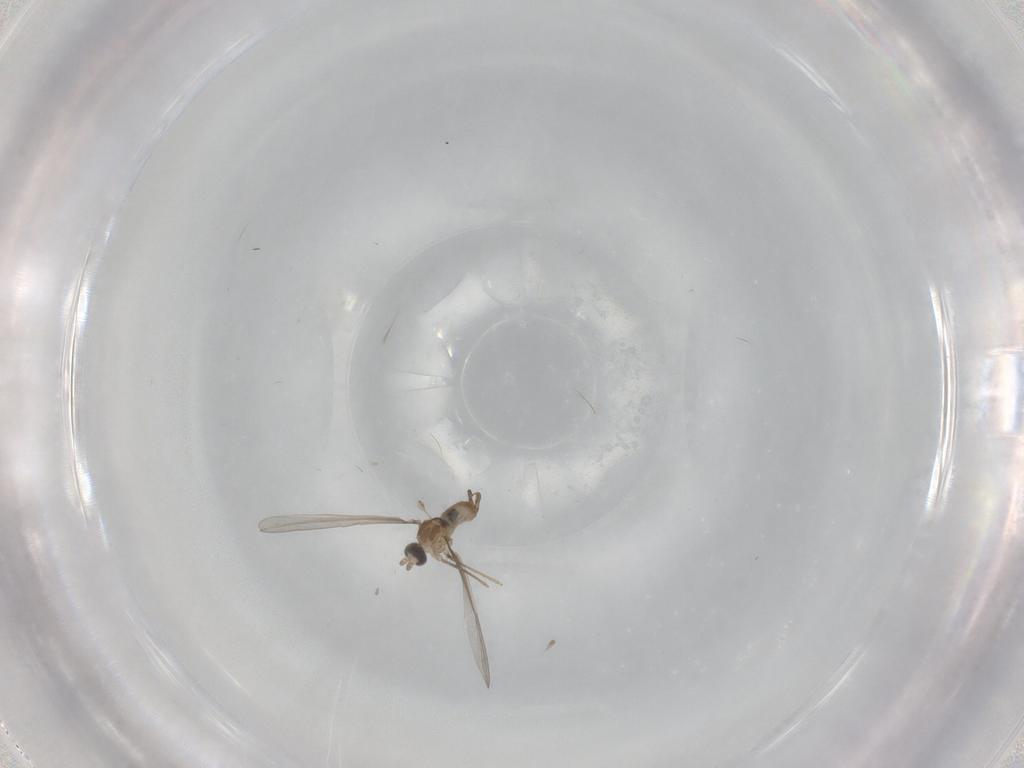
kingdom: Animalia
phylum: Arthropoda
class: Insecta
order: Diptera
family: Cecidomyiidae
